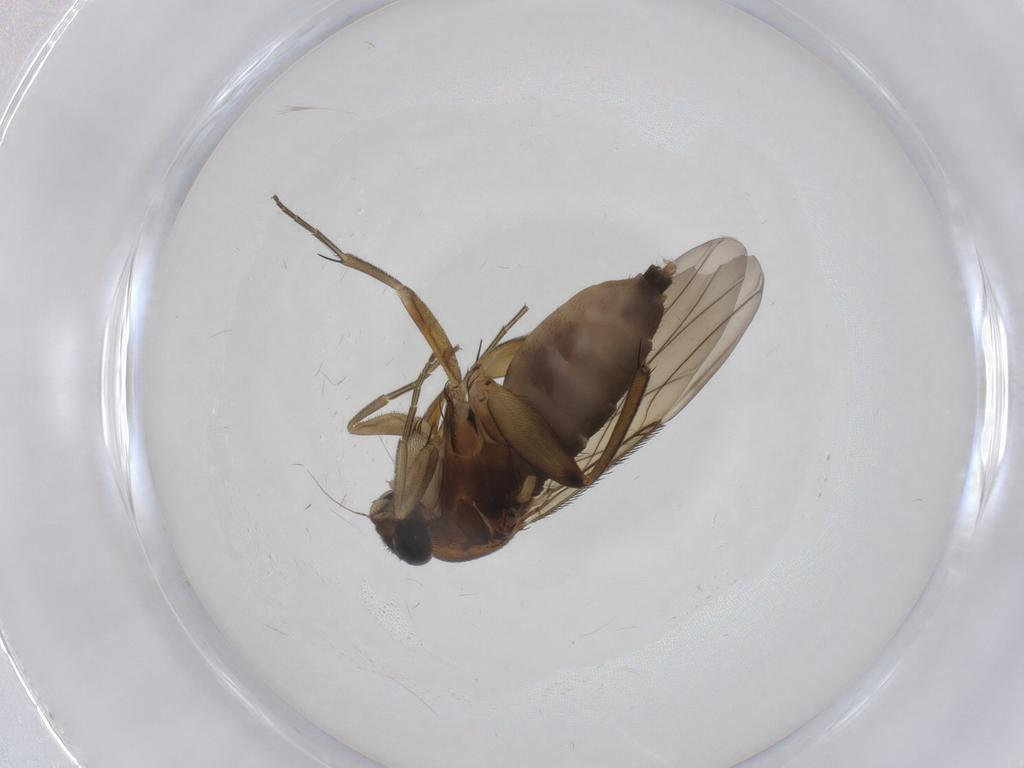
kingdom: Animalia
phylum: Arthropoda
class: Insecta
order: Diptera
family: Phoridae
